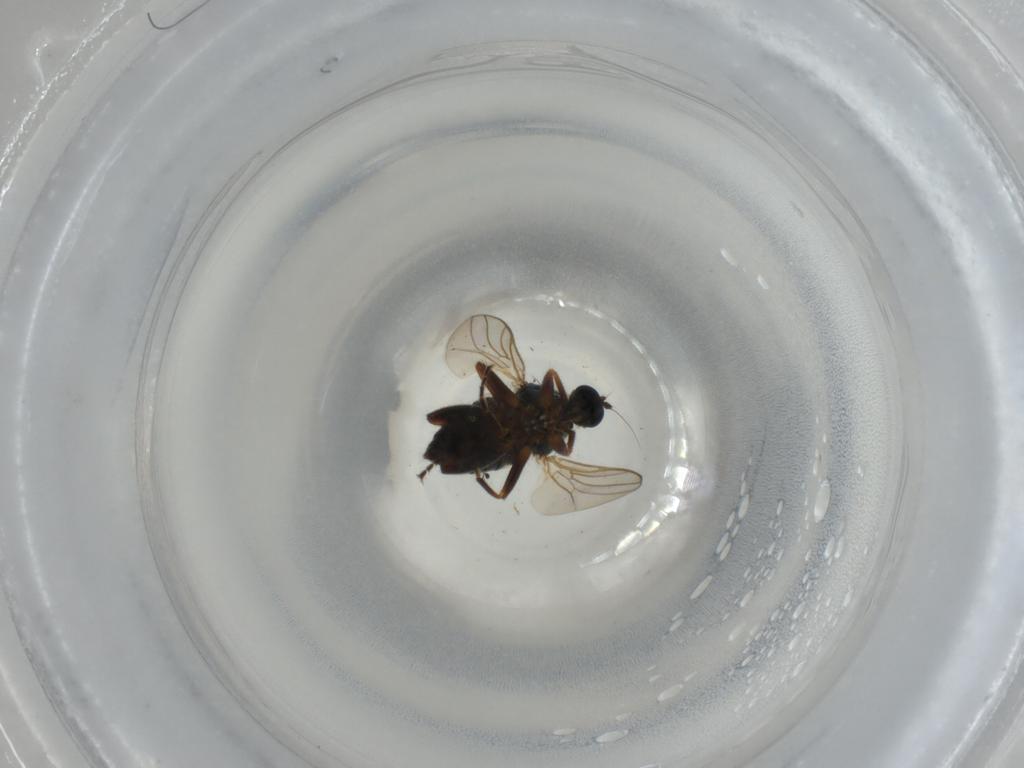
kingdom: Animalia
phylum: Arthropoda
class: Insecta
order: Diptera
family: Hybotidae
